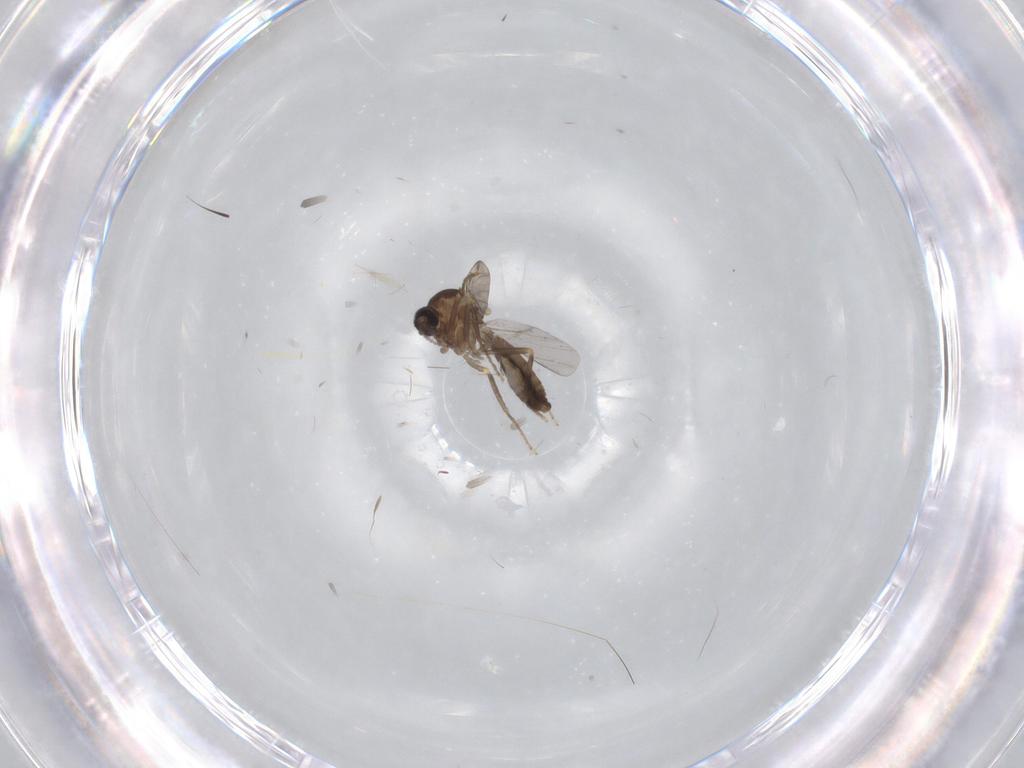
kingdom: Animalia
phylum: Arthropoda
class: Insecta
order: Diptera
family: Ceratopogonidae
